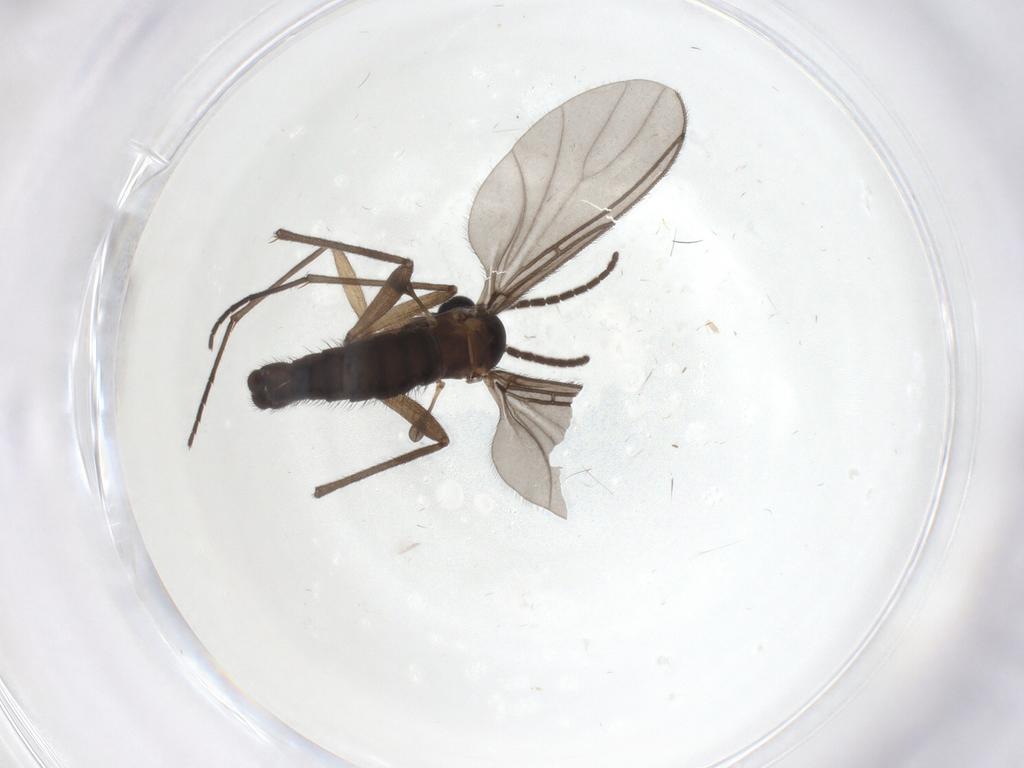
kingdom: Animalia
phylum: Arthropoda
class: Insecta
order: Diptera
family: Sciaridae
